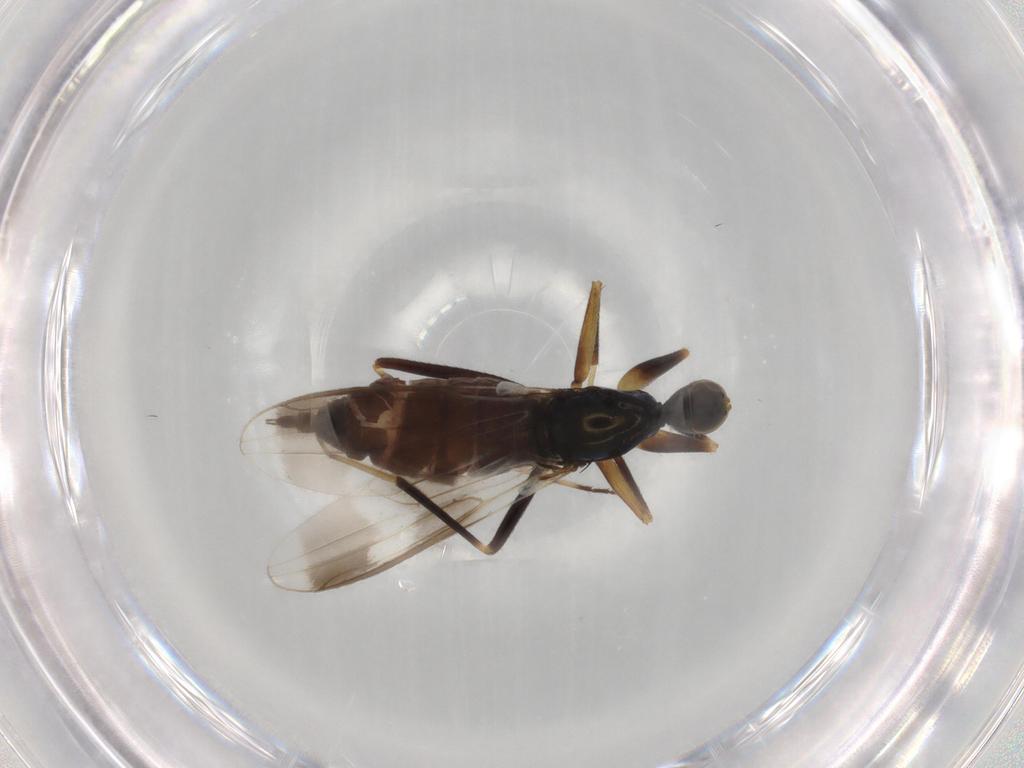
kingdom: Animalia
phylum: Arthropoda
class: Insecta
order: Diptera
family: Hybotidae
